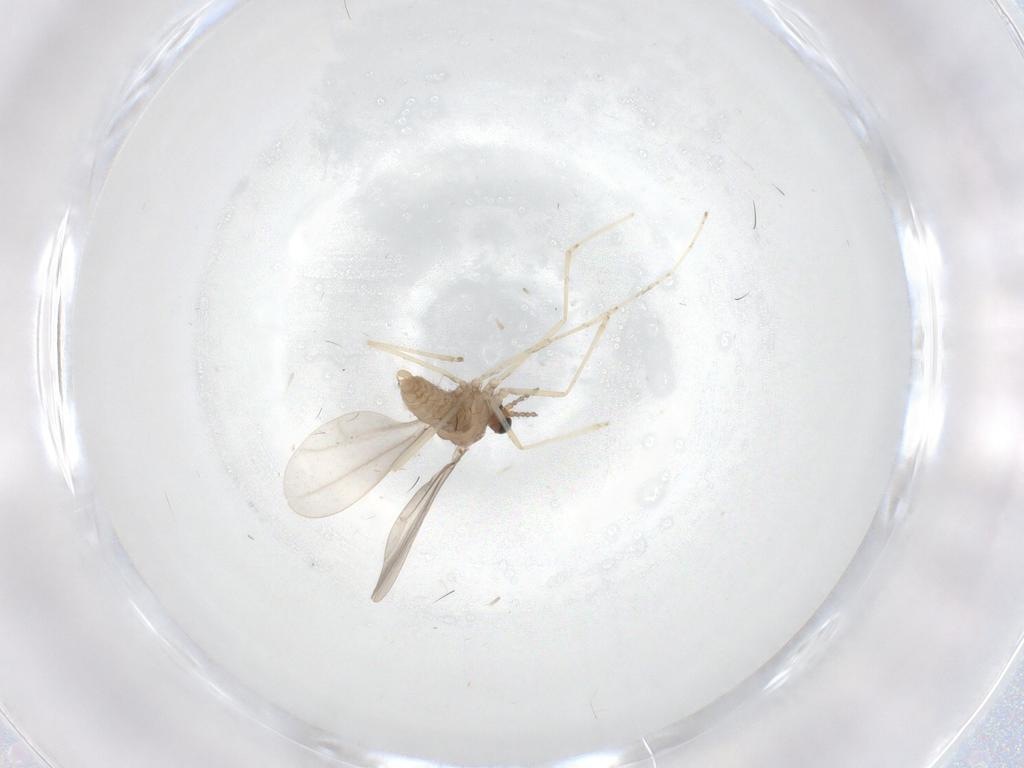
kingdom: Animalia
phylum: Arthropoda
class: Insecta
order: Diptera
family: Cecidomyiidae
